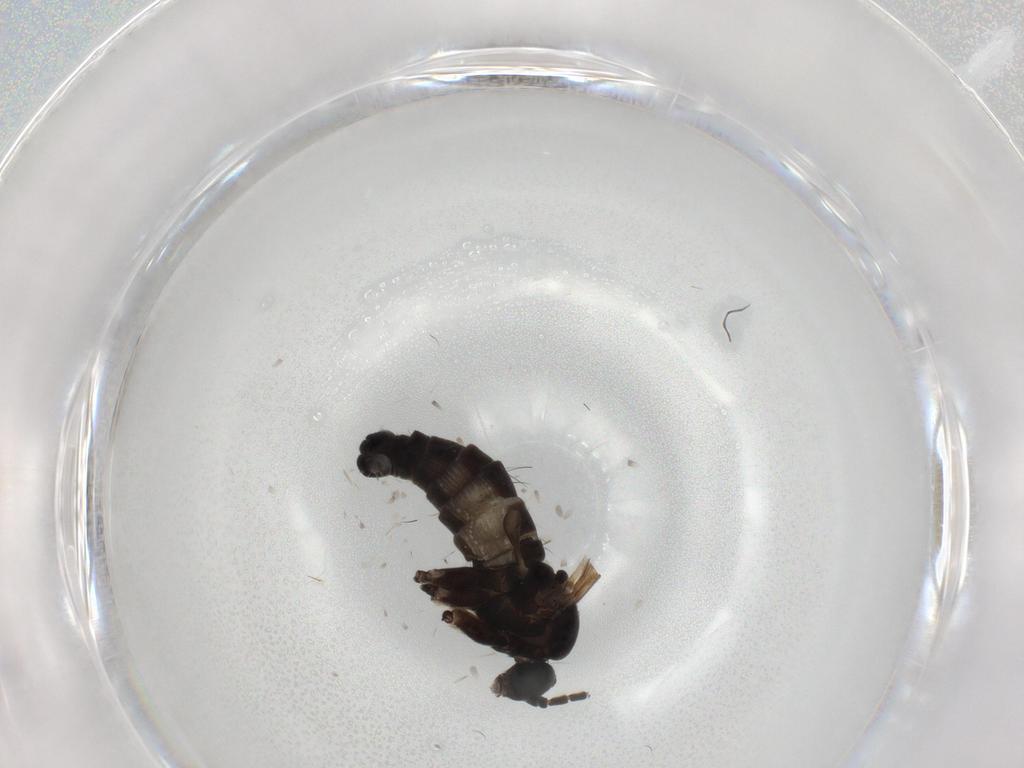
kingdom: Animalia
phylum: Arthropoda
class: Insecta
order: Diptera
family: Sciaridae
